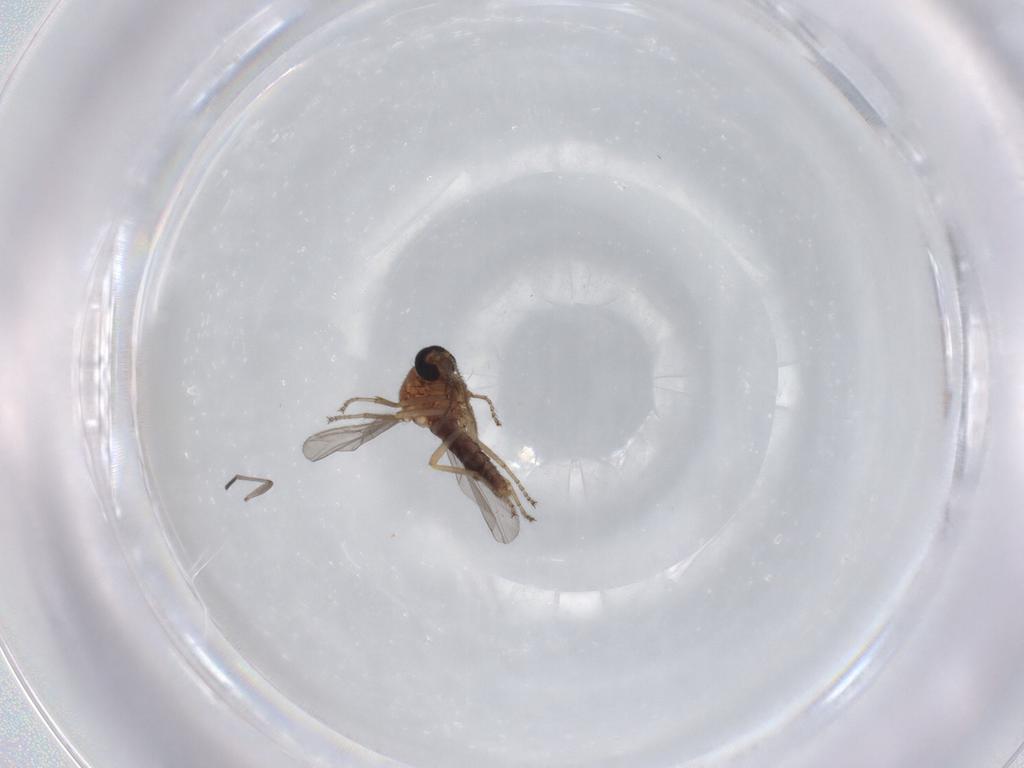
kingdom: Animalia
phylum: Arthropoda
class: Insecta
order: Diptera
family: Ceratopogonidae
